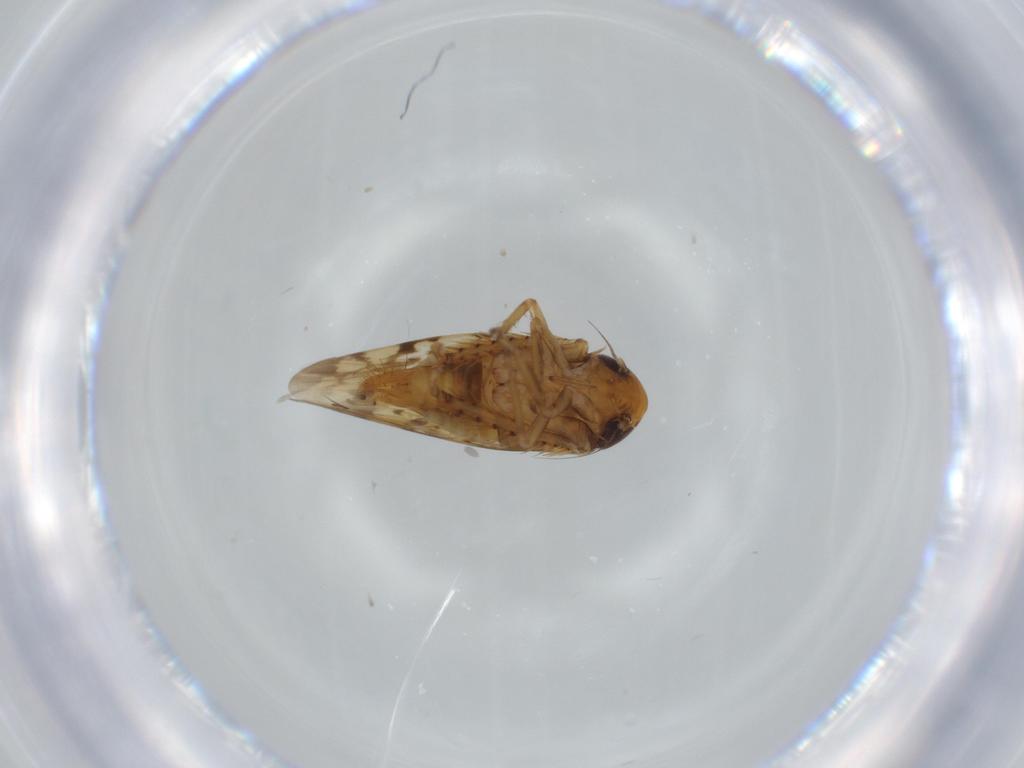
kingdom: Animalia
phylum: Arthropoda
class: Insecta
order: Hemiptera
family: Cicadellidae
